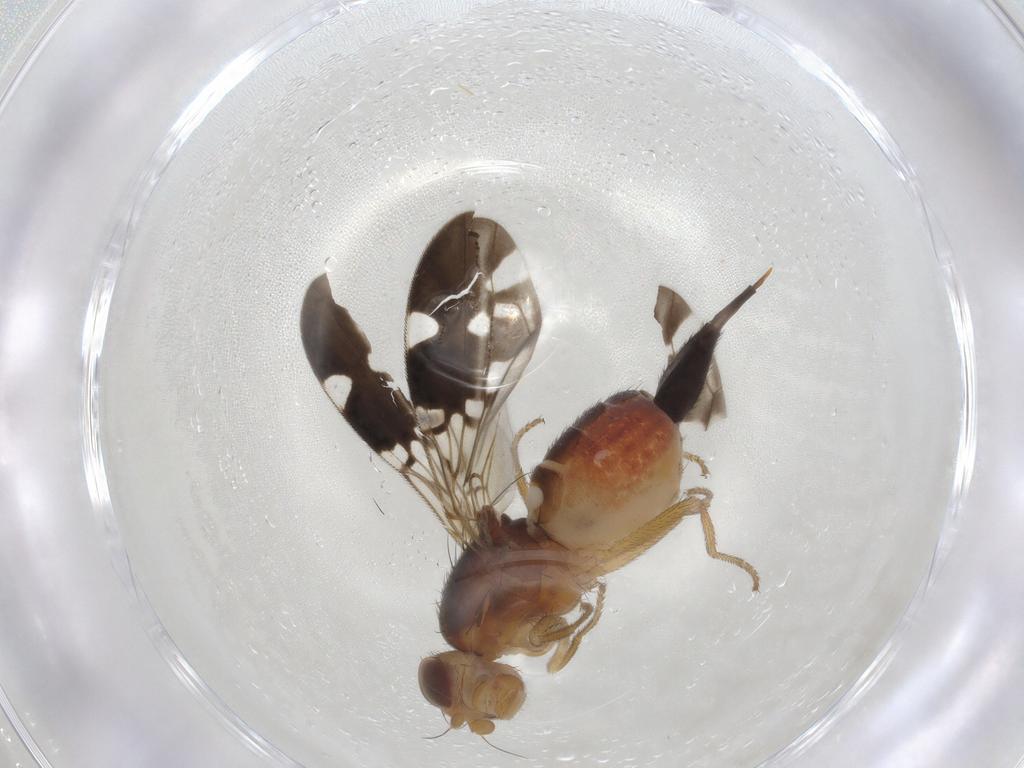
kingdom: Animalia
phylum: Arthropoda
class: Insecta
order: Diptera
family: Ulidiidae
